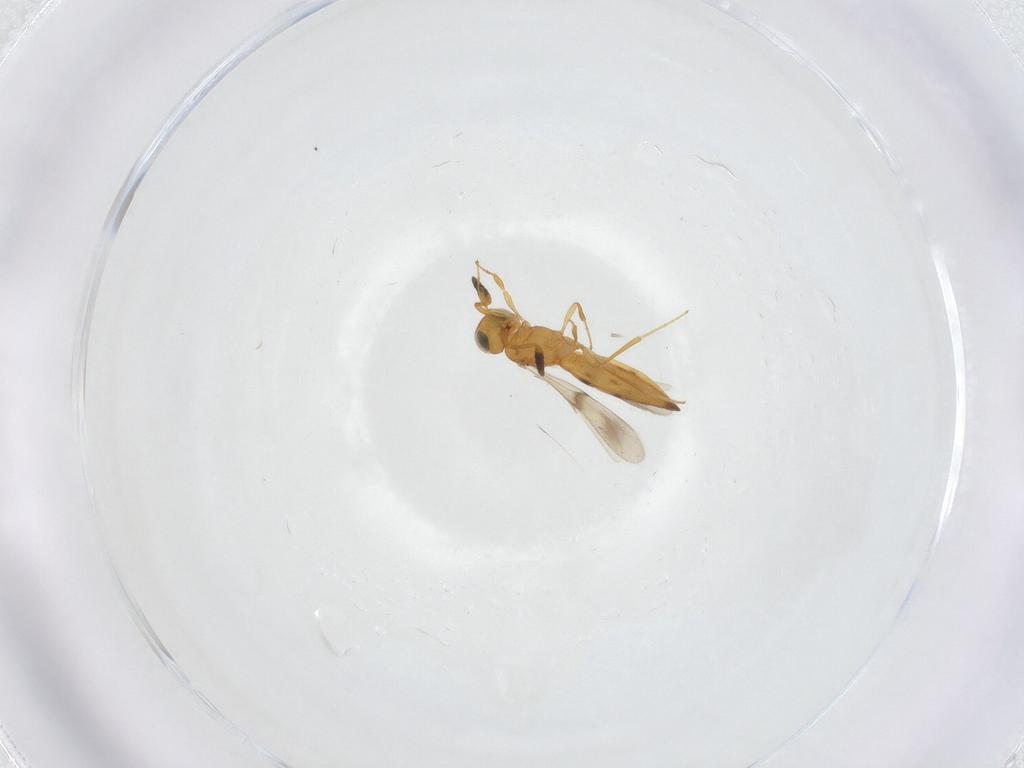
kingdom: Animalia
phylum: Arthropoda
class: Insecta
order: Hymenoptera
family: Scelionidae
